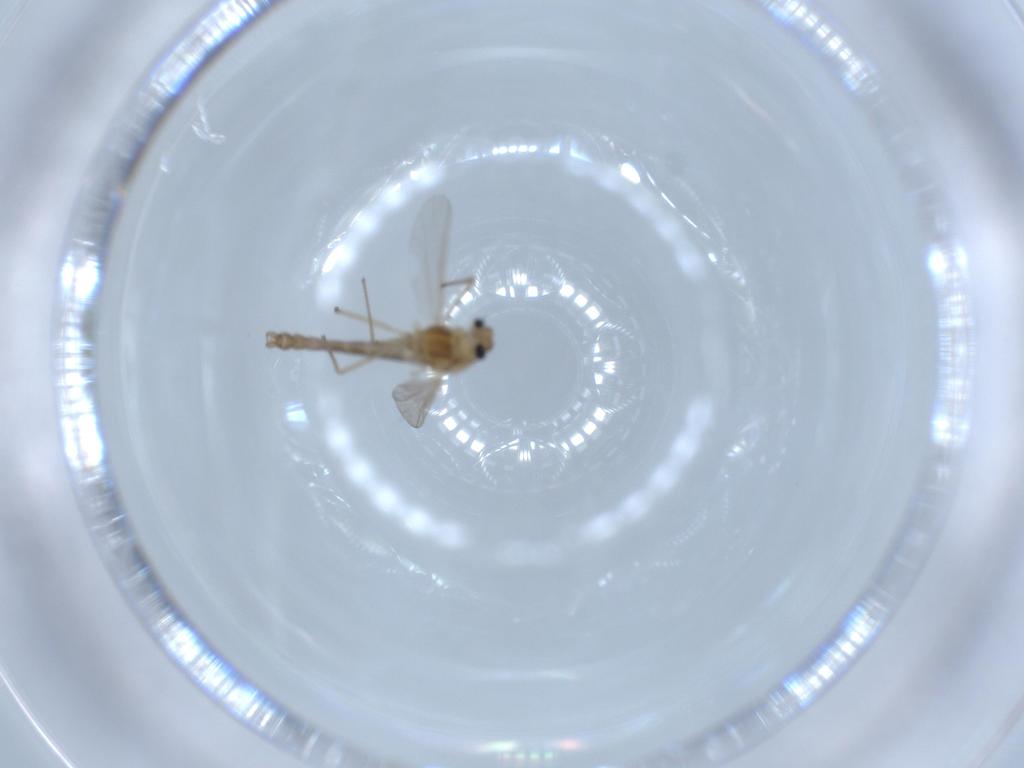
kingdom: Animalia
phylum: Arthropoda
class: Insecta
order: Diptera
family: Chironomidae
